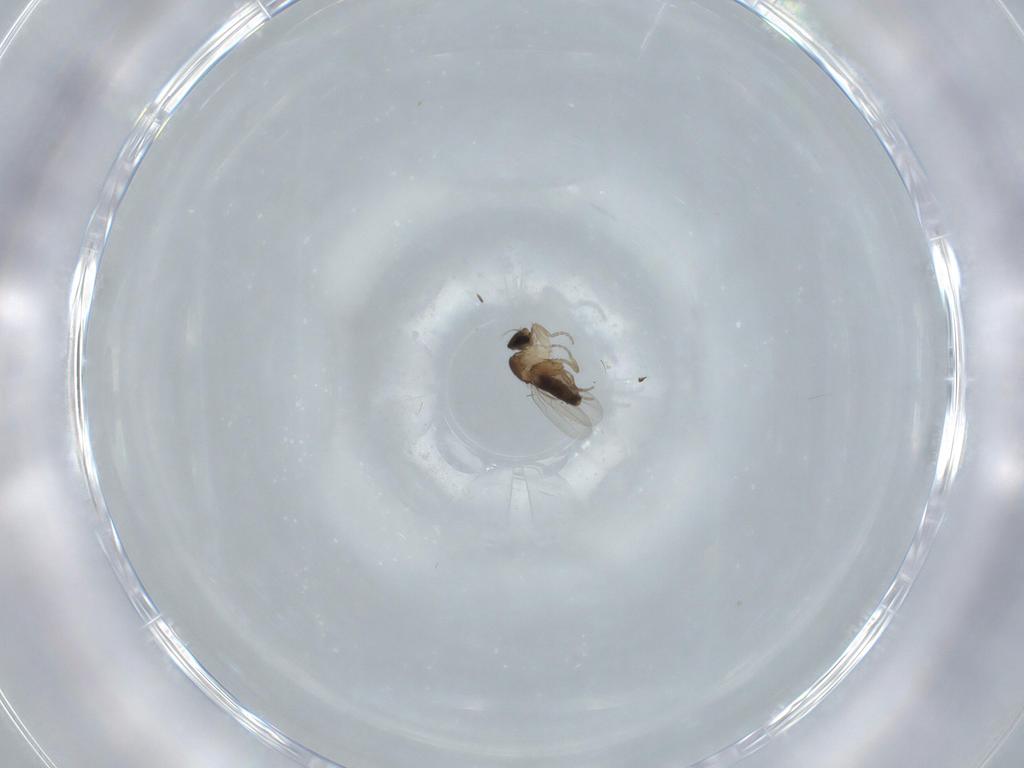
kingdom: Animalia
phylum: Arthropoda
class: Insecta
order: Diptera
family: Phoridae
